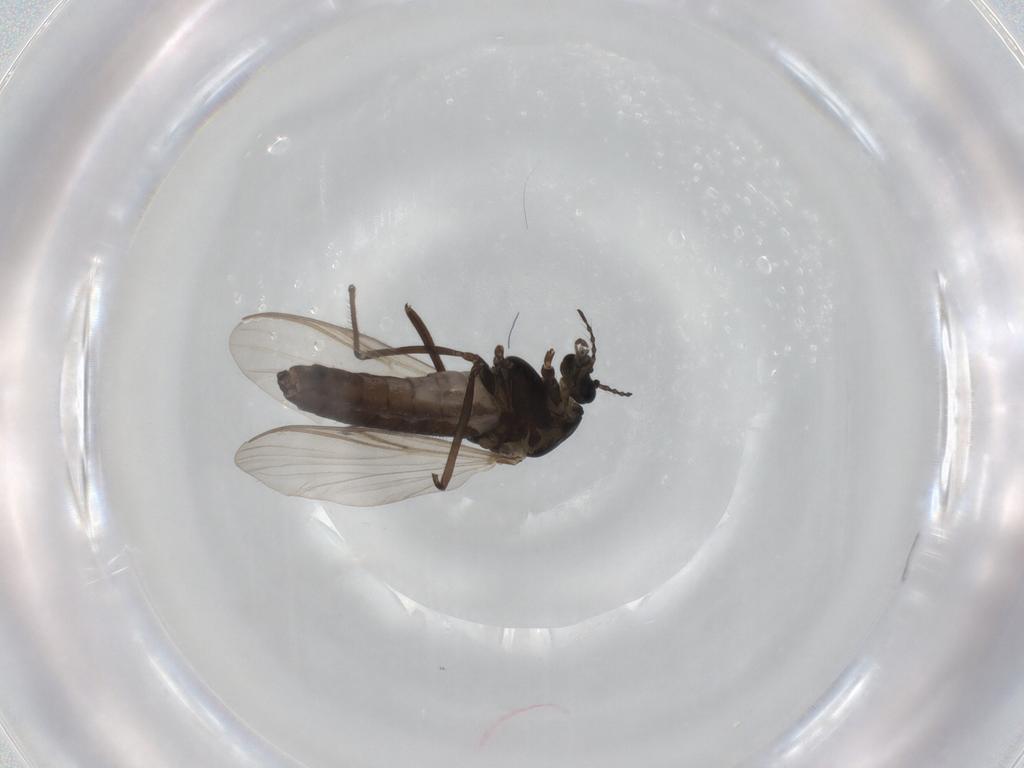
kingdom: Animalia
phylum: Arthropoda
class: Insecta
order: Diptera
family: Chironomidae
